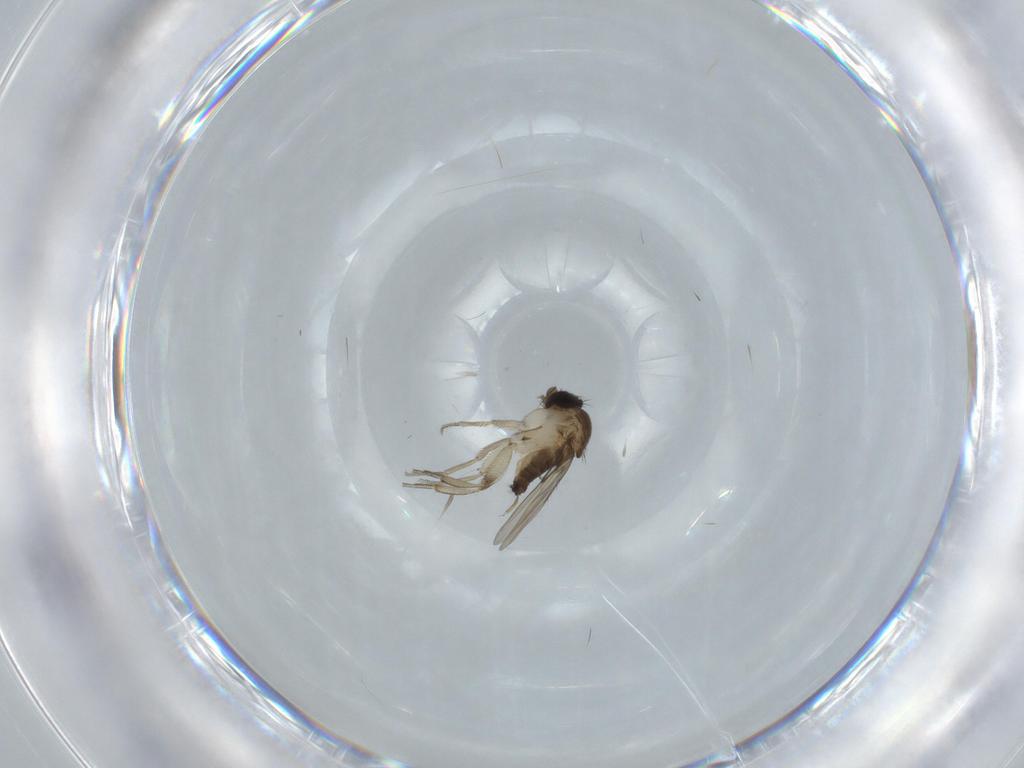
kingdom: Animalia
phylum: Arthropoda
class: Insecta
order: Diptera
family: Phoridae
